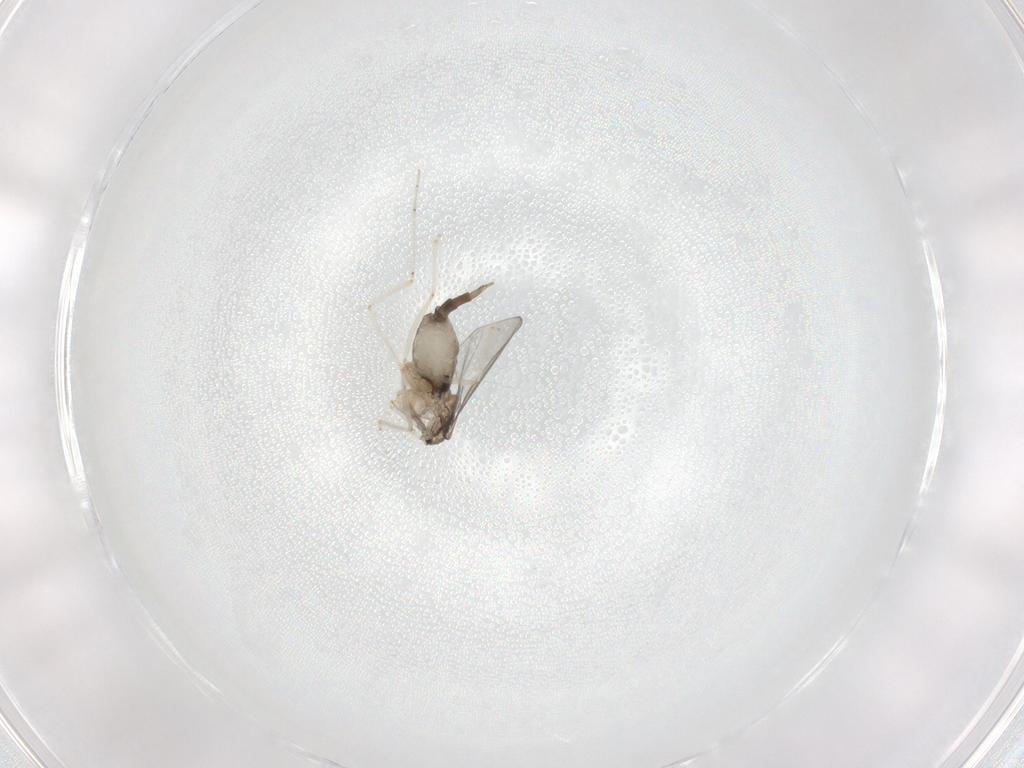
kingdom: Animalia
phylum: Arthropoda
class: Insecta
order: Diptera
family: Cecidomyiidae
